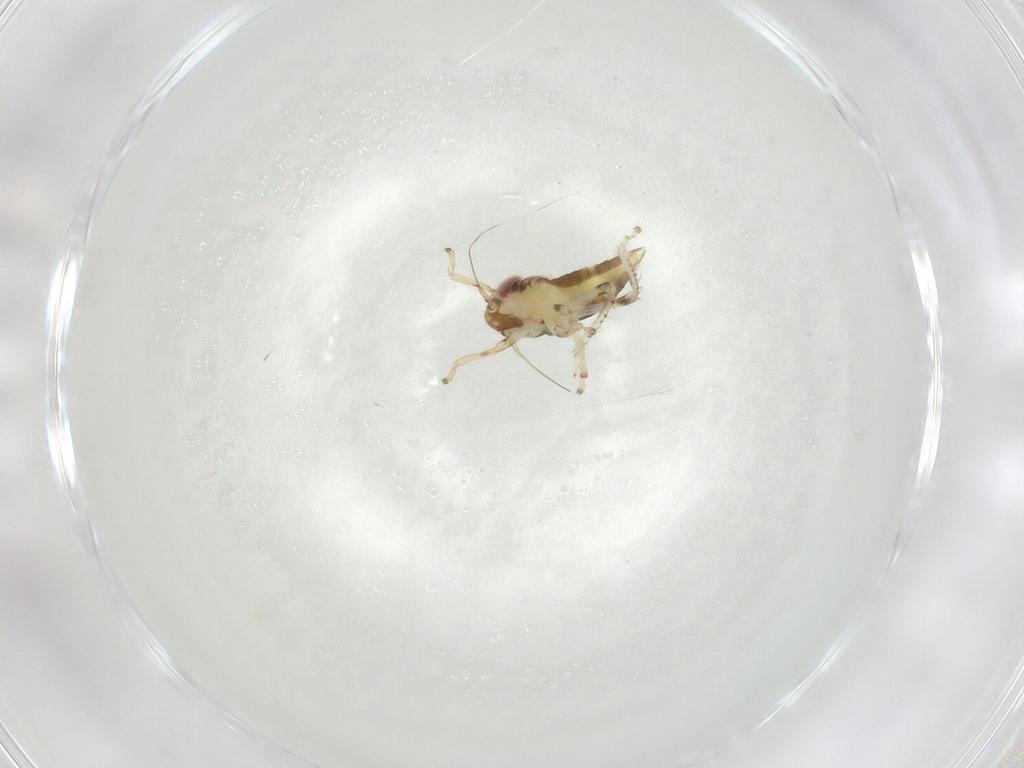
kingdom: Animalia
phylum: Arthropoda
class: Insecta
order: Hemiptera
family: Cicadellidae
